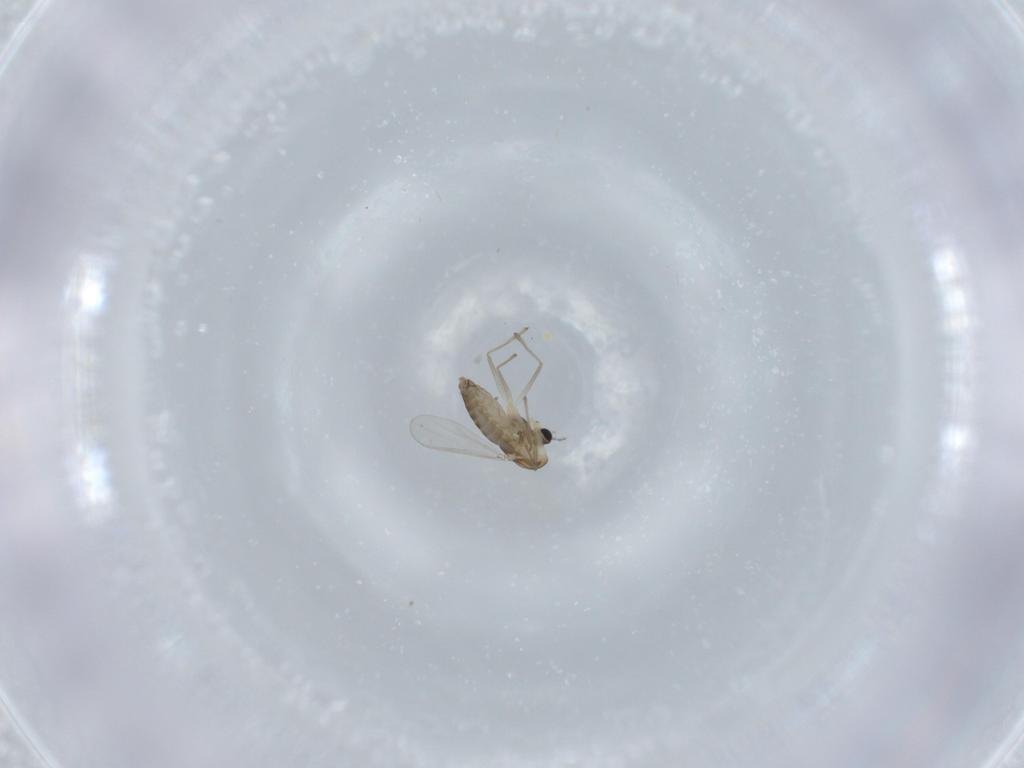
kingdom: Animalia
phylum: Arthropoda
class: Insecta
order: Diptera
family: Chironomidae
